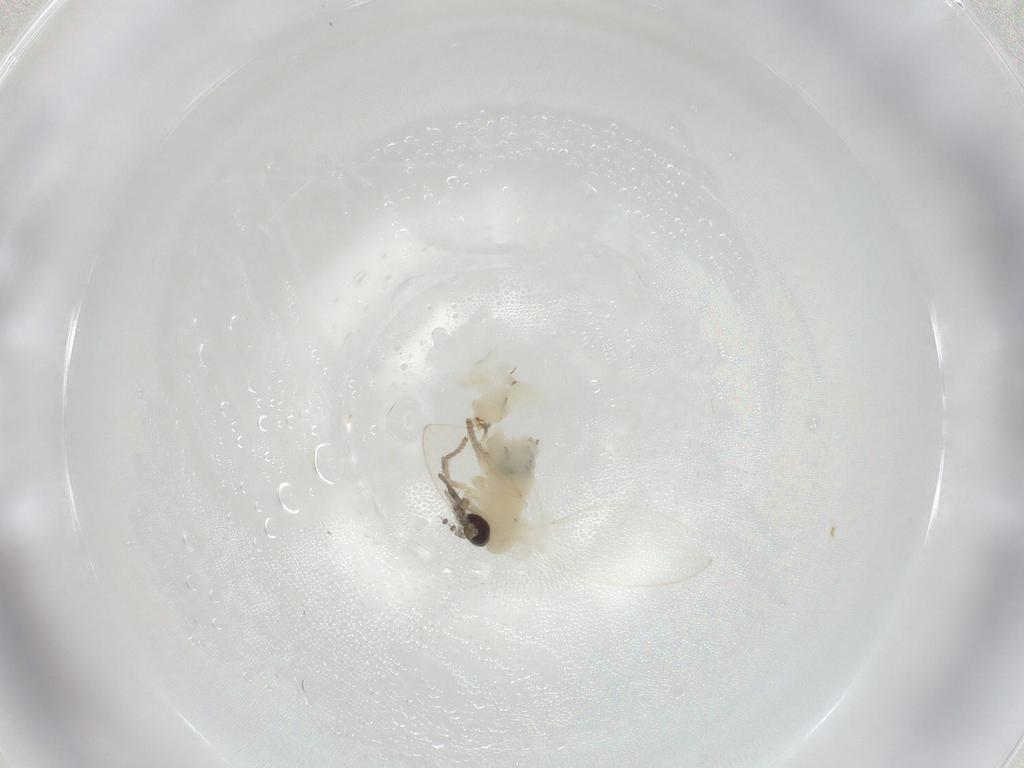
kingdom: Animalia
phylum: Arthropoda
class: Insecta
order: Diptera
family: Psychodidae
